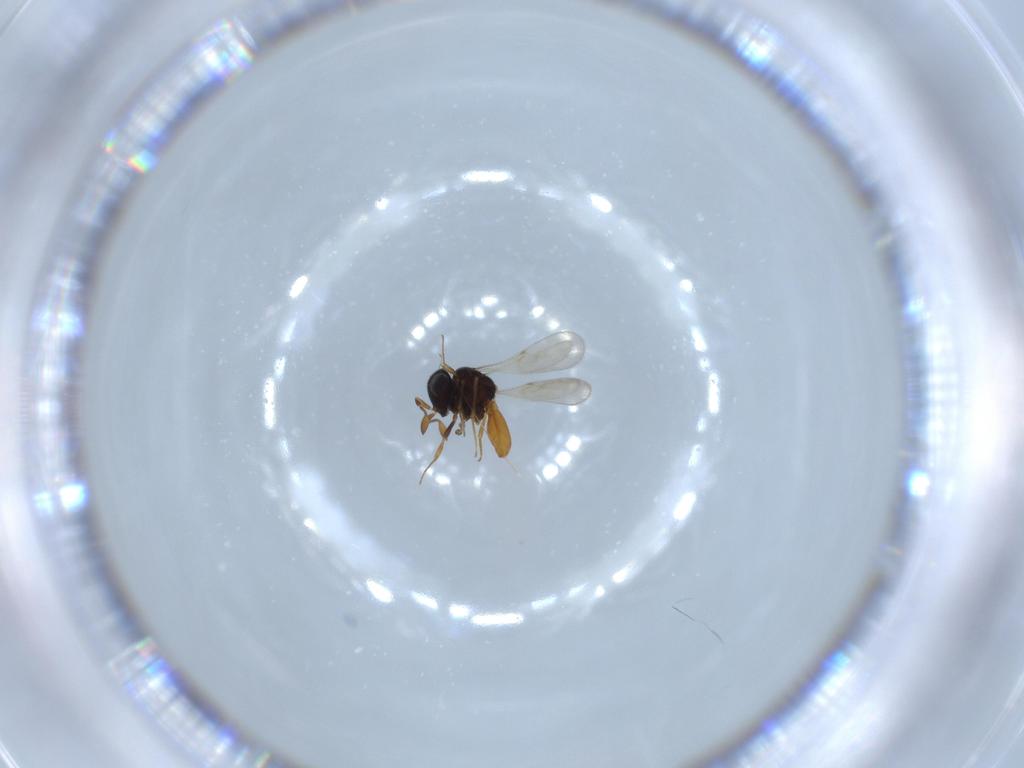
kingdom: Animalia
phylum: Arthropoda
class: Insecta
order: Hymenoptera
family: Scelionidae
